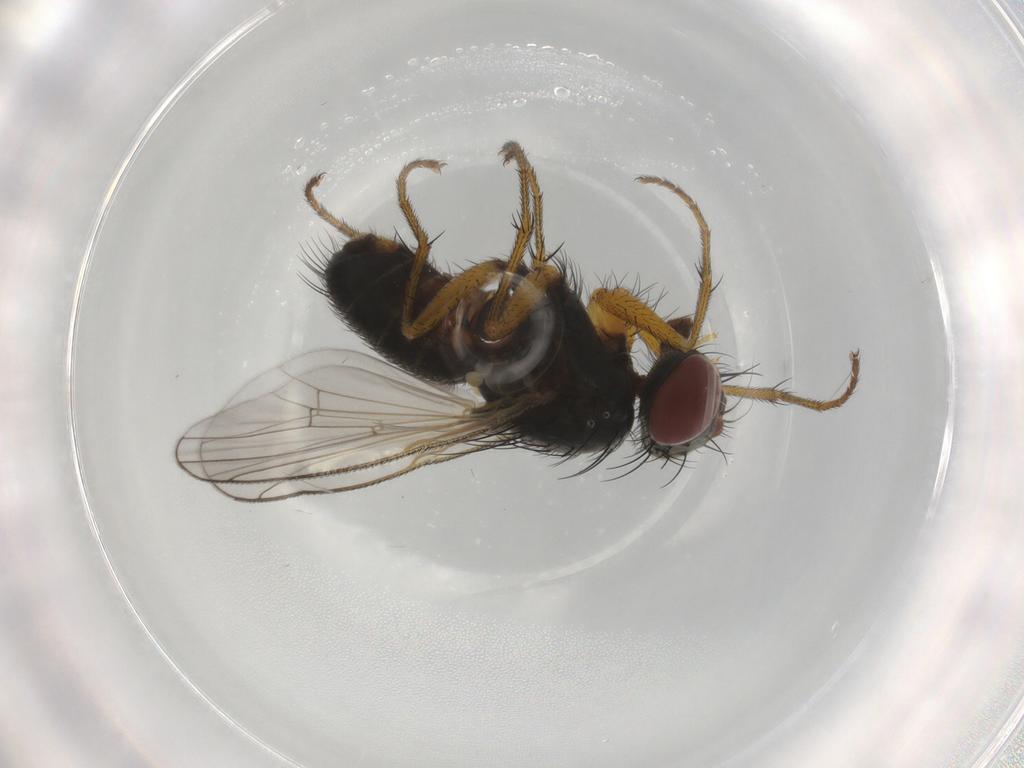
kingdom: Animalia
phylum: Arthropoda
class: Insecta
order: Diptera
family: Muscidae
